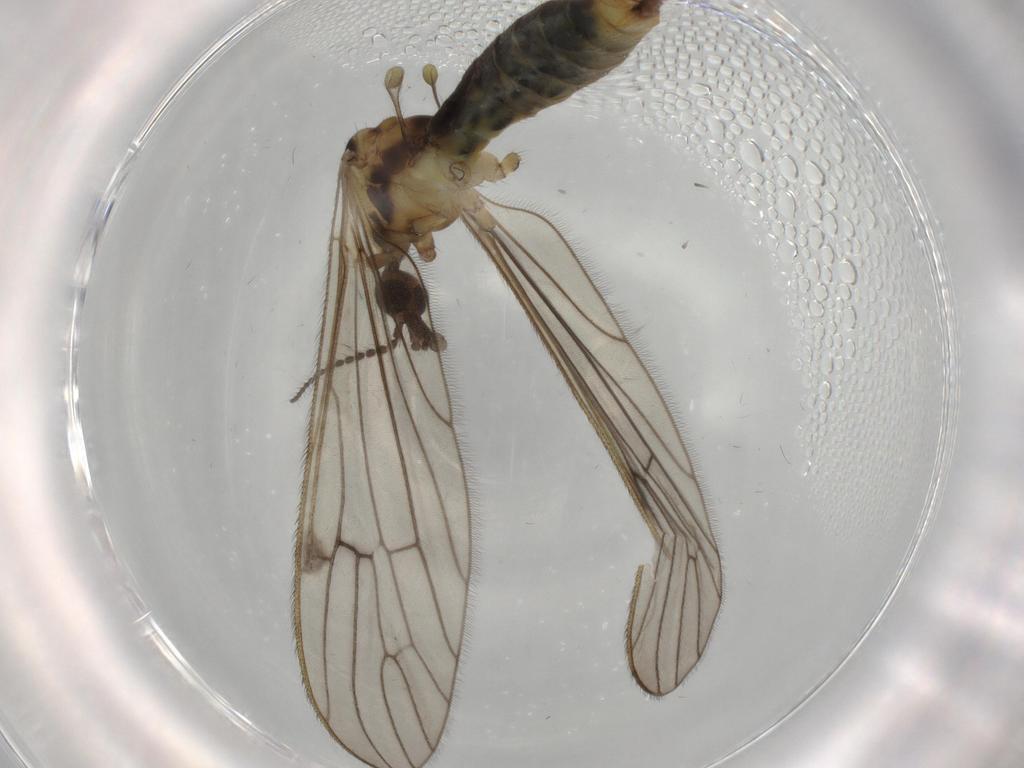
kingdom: Animalia
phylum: Arthropoda
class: Insecta
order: Diptera
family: Limoniidae
